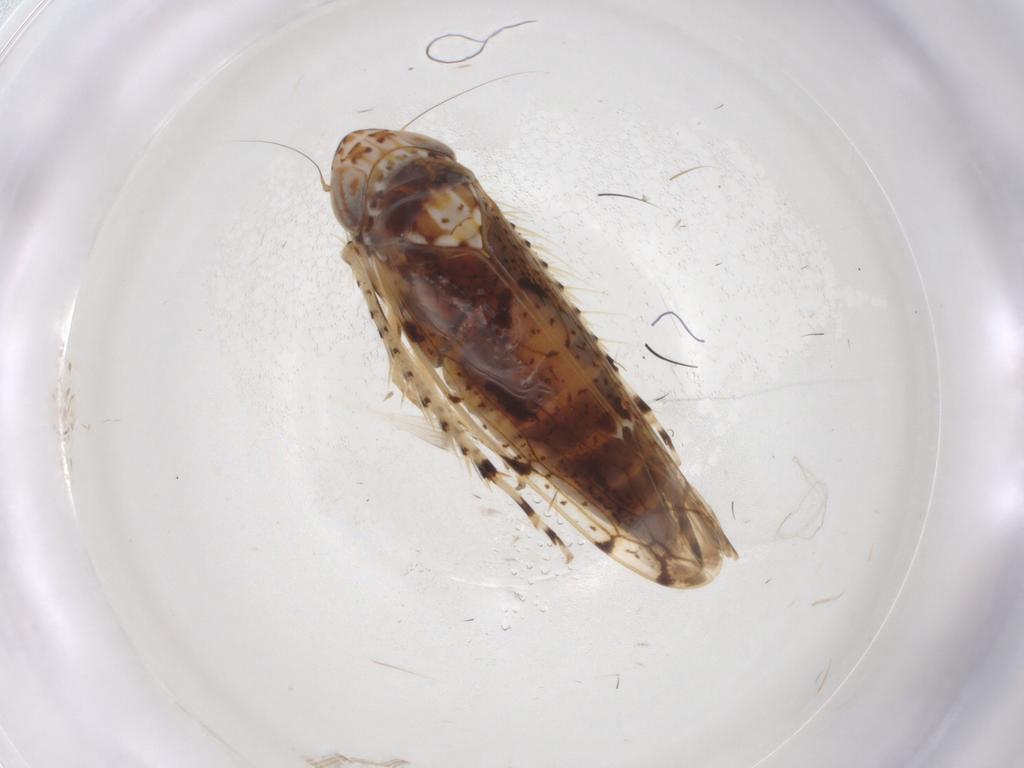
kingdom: Animalia
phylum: Arthropoda
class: Insecta
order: Hemiptera
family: Cicadellidae
